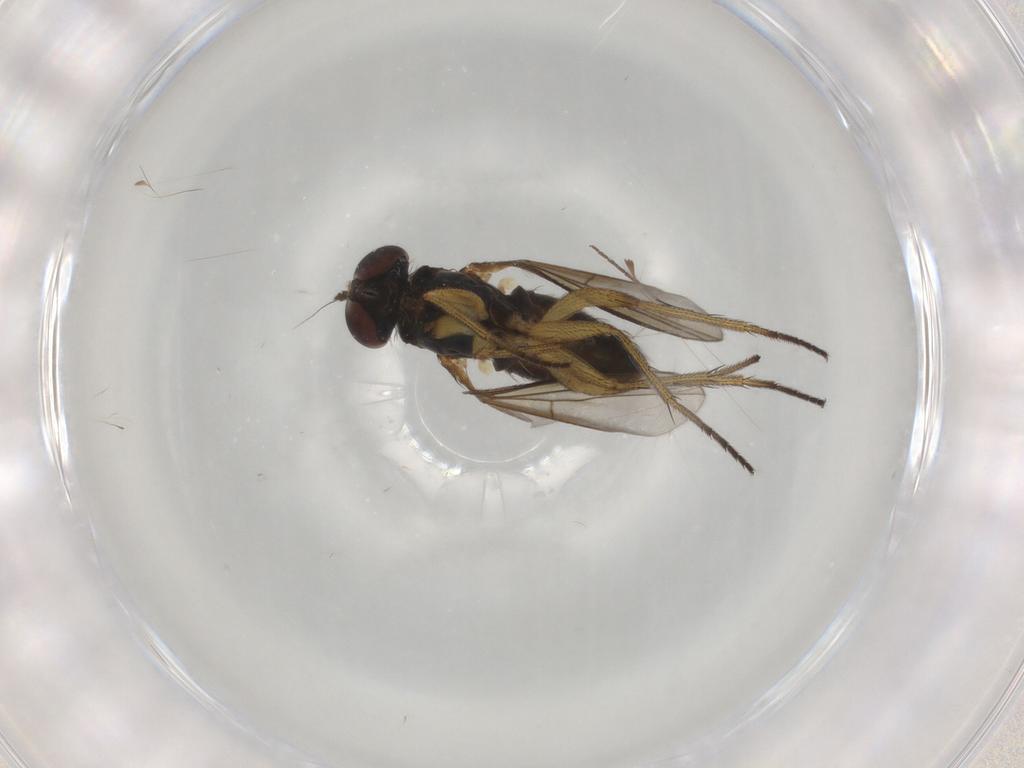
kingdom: Animalia
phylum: Arthropoda
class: Insecta
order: Diptera
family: Dolichopodidae
